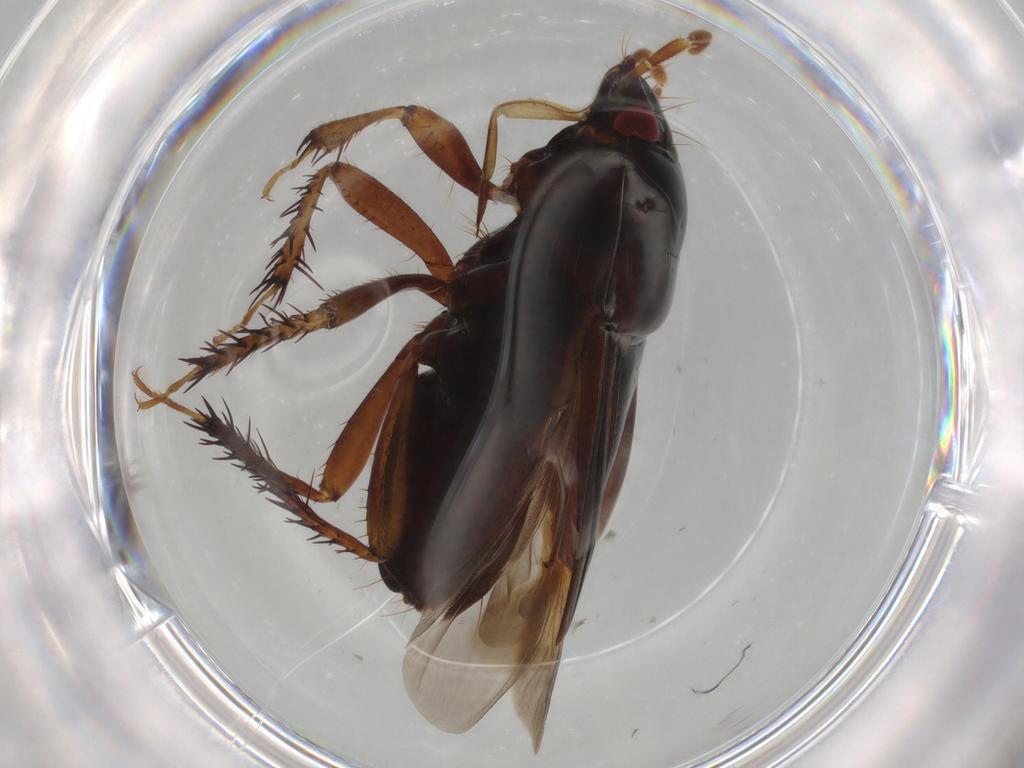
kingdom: Animalia
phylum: Arthropoda
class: Insecta
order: Hemiptera
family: Cydnidae
